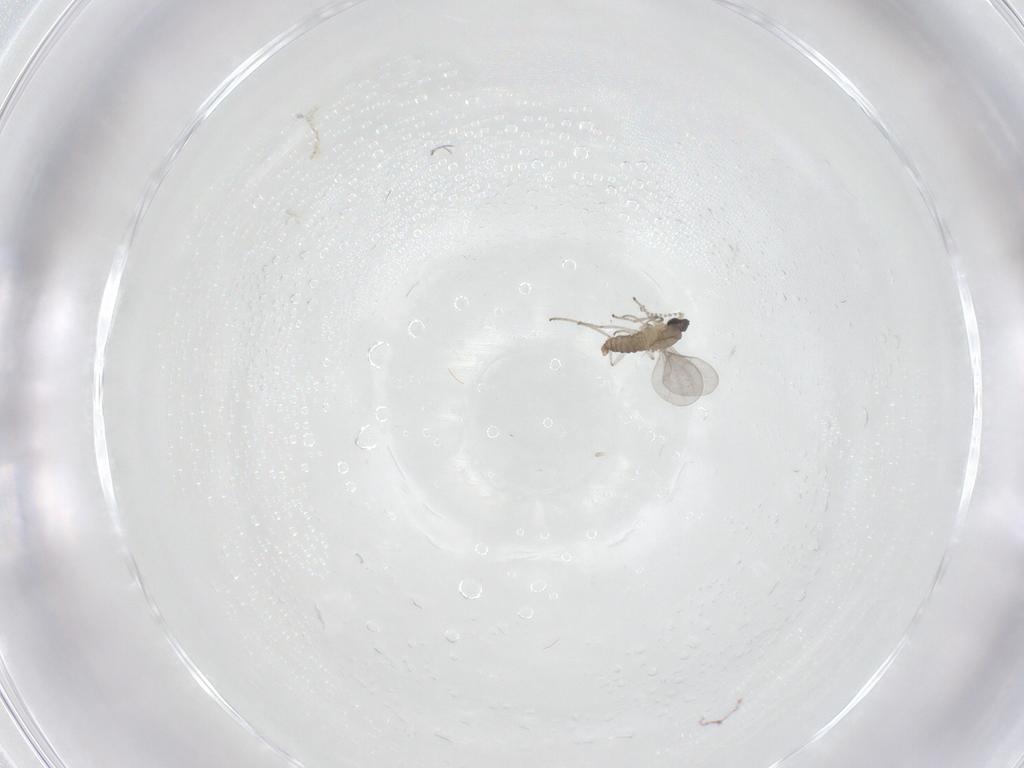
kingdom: Animalia
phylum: Arthropoda
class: Insecta
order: Diptera
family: Cecidomyiidae
